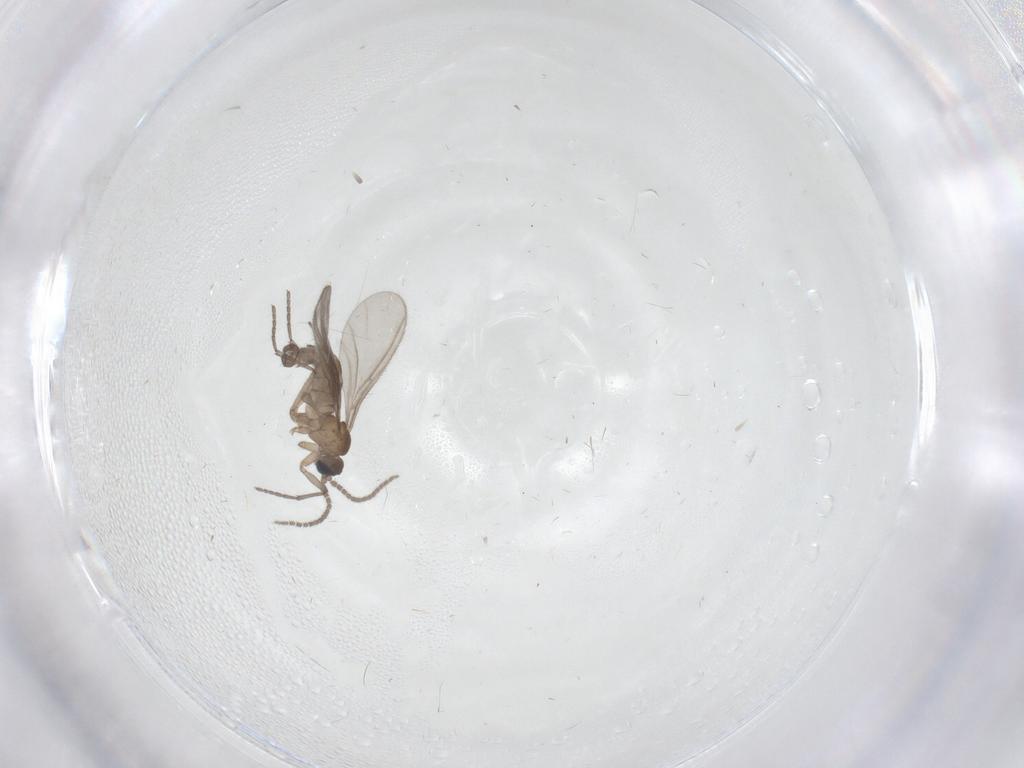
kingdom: Animalia
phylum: Arthropoda
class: Insecta
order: Diptera
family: Sciaridae
